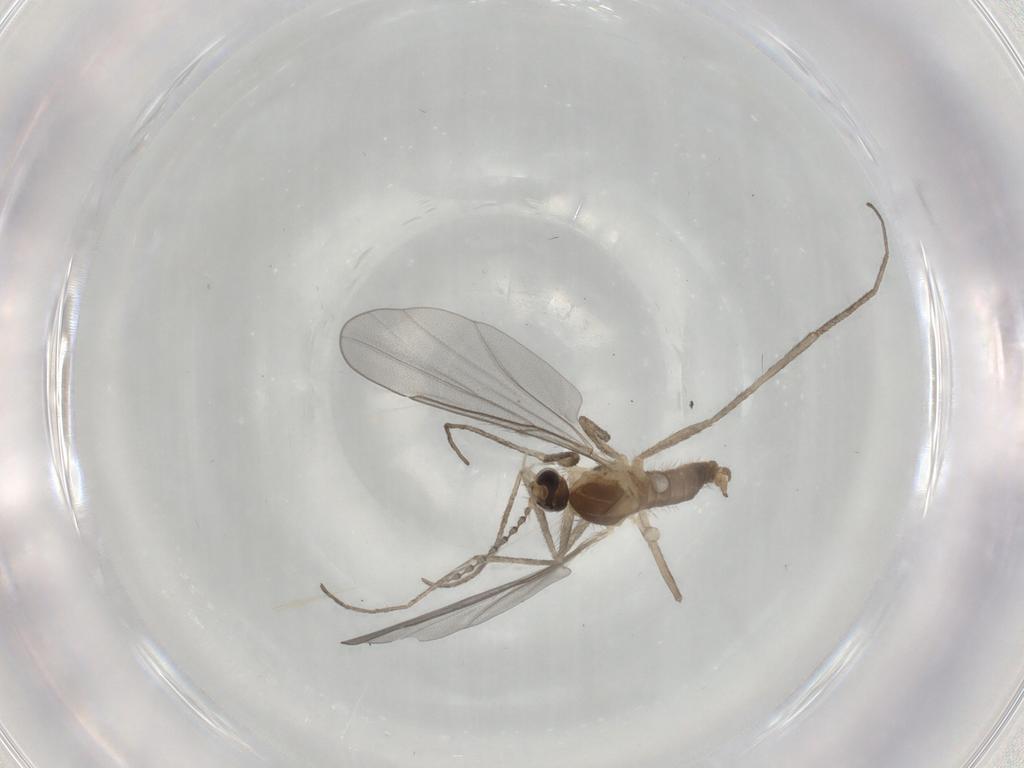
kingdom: Animalia
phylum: Arthropoda
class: Insecta
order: Diptera
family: Cecidomyiidae
